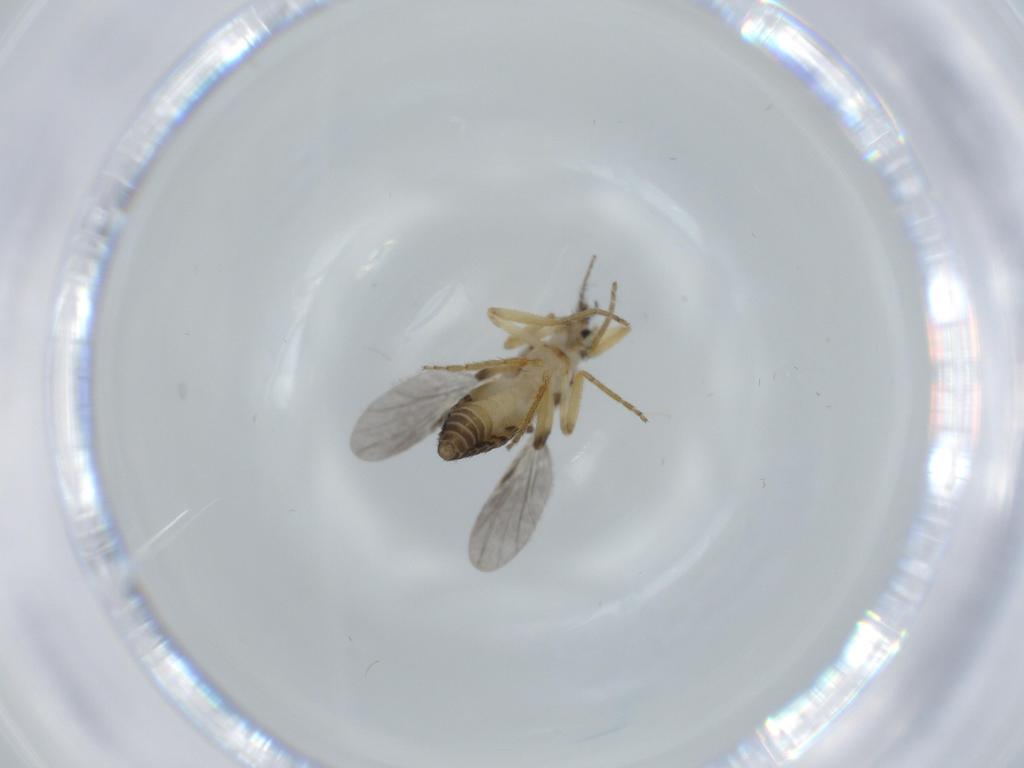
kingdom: Animalia
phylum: Arthropoda
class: Insecta
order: Diptera
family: Ceratopogonidae
